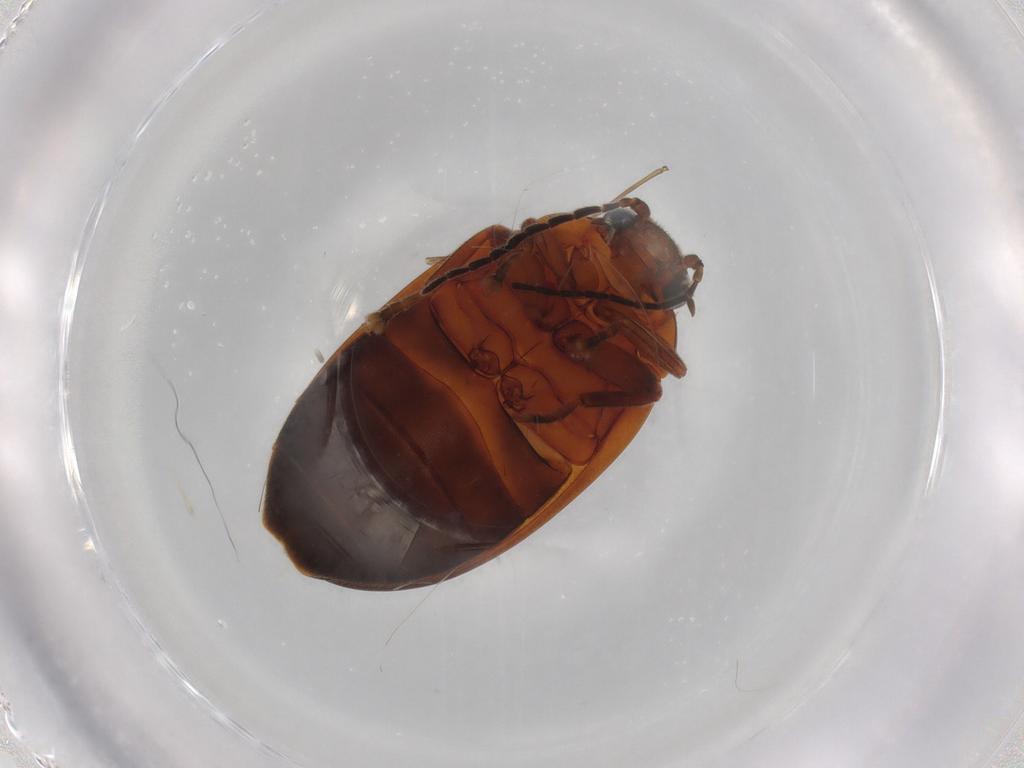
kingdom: Animalia
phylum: Arthropoda
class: Insecta
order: Coleoptera
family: Scirtidae
